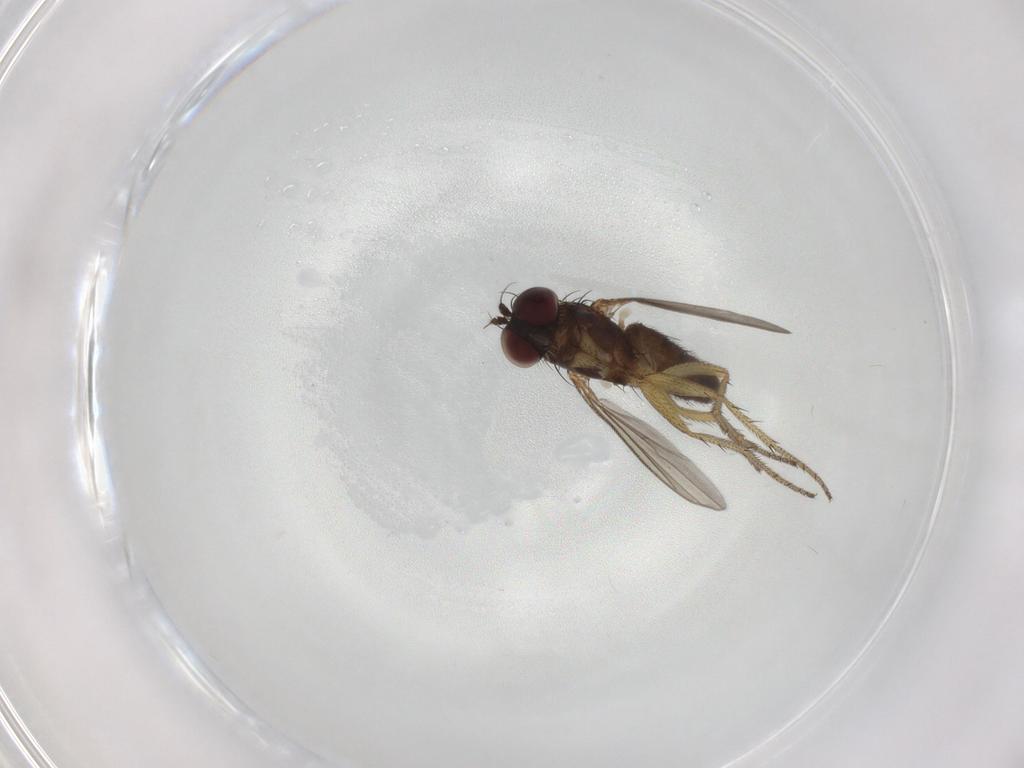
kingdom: Animalia
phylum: Arthropoda
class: Insecta
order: Diptera
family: Dolichopodidae
